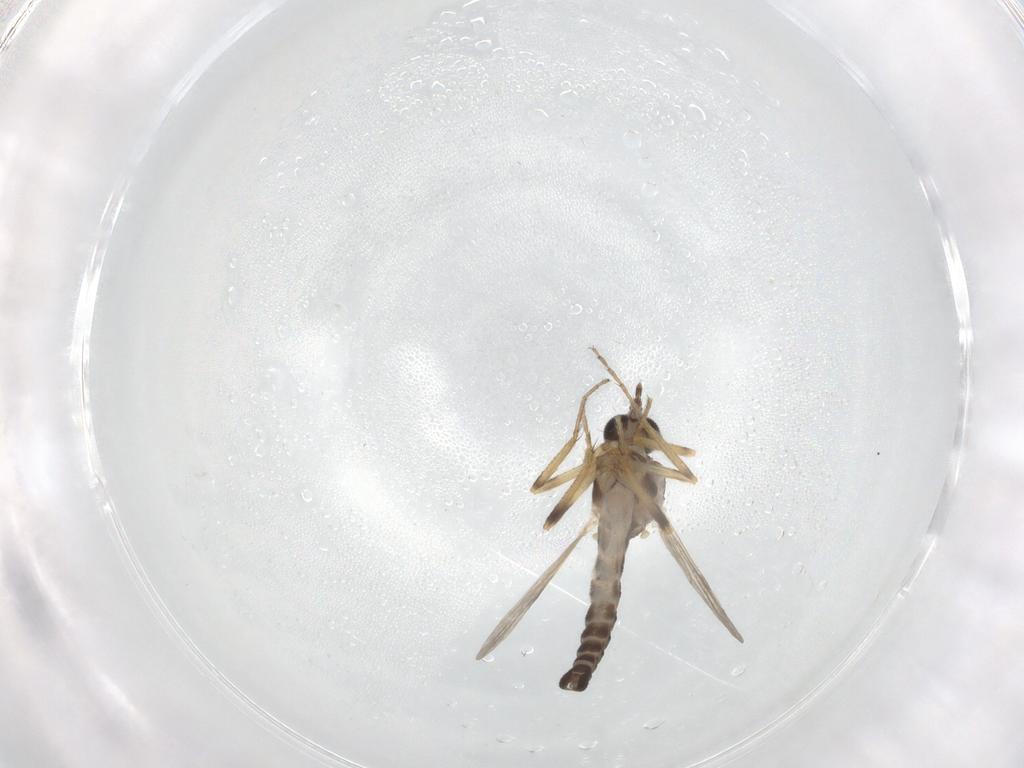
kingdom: Animalia
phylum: Arthropoda
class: Insecta
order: Diptera
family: Ceratopogonidae
